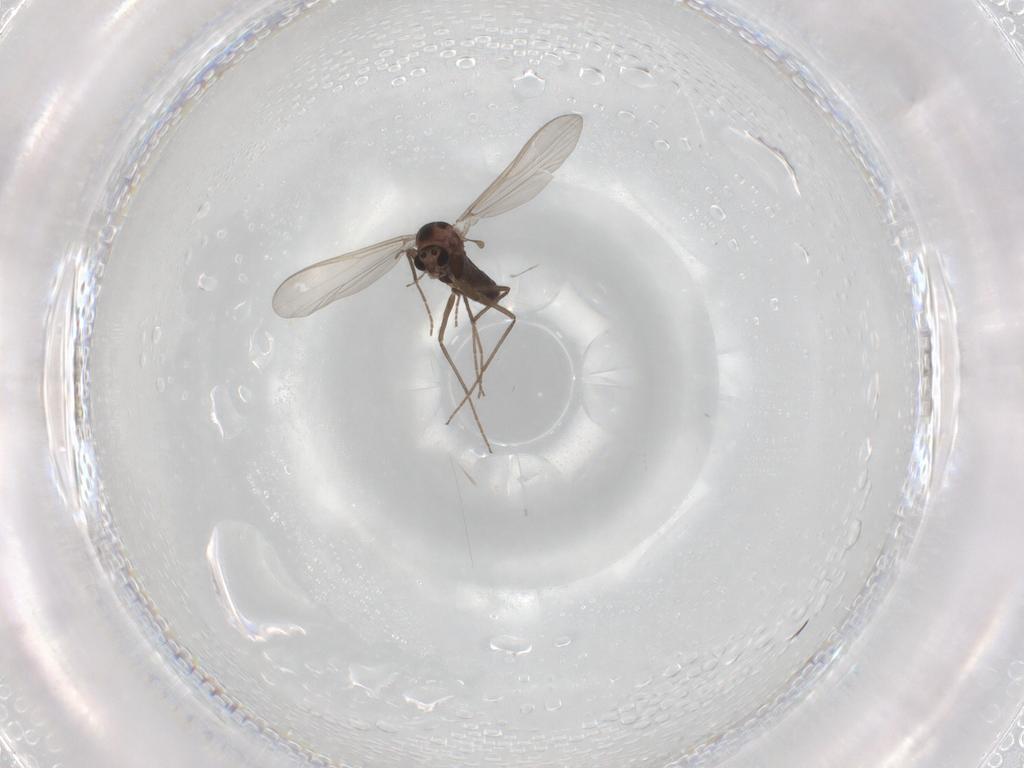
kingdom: Animalia
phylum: Arthropoda
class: Insecta
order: Diptera
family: Chironomidae
